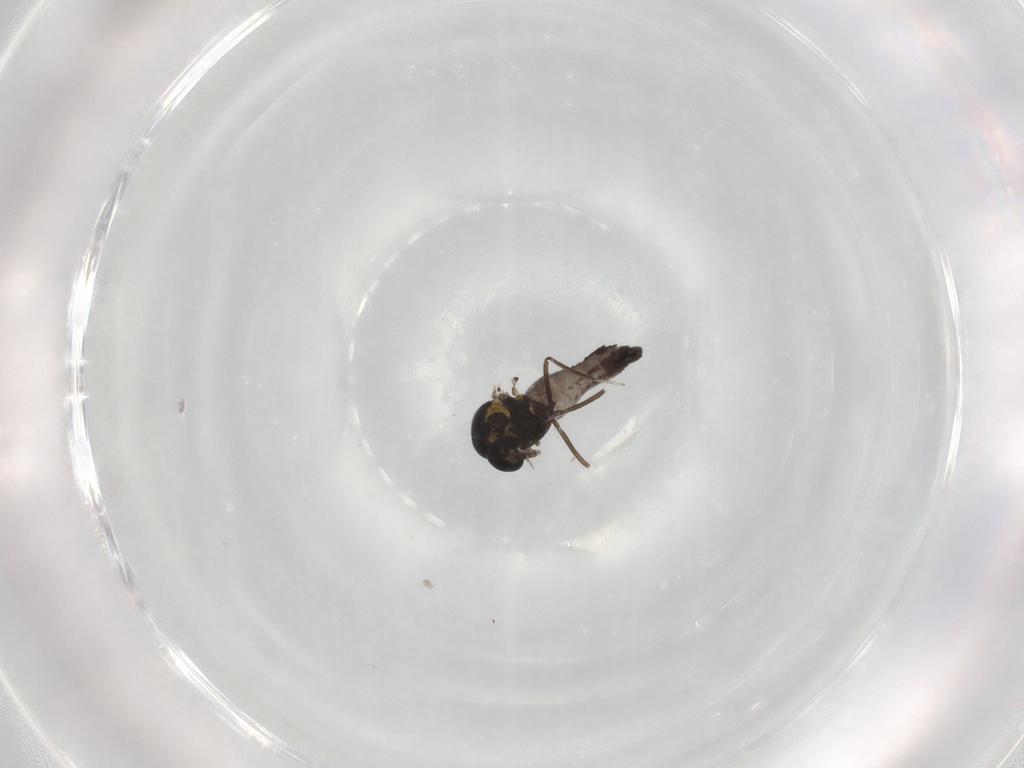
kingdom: Animalia
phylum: Arthropoda
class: Insecta
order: Diptera
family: Ceratopogonidae
